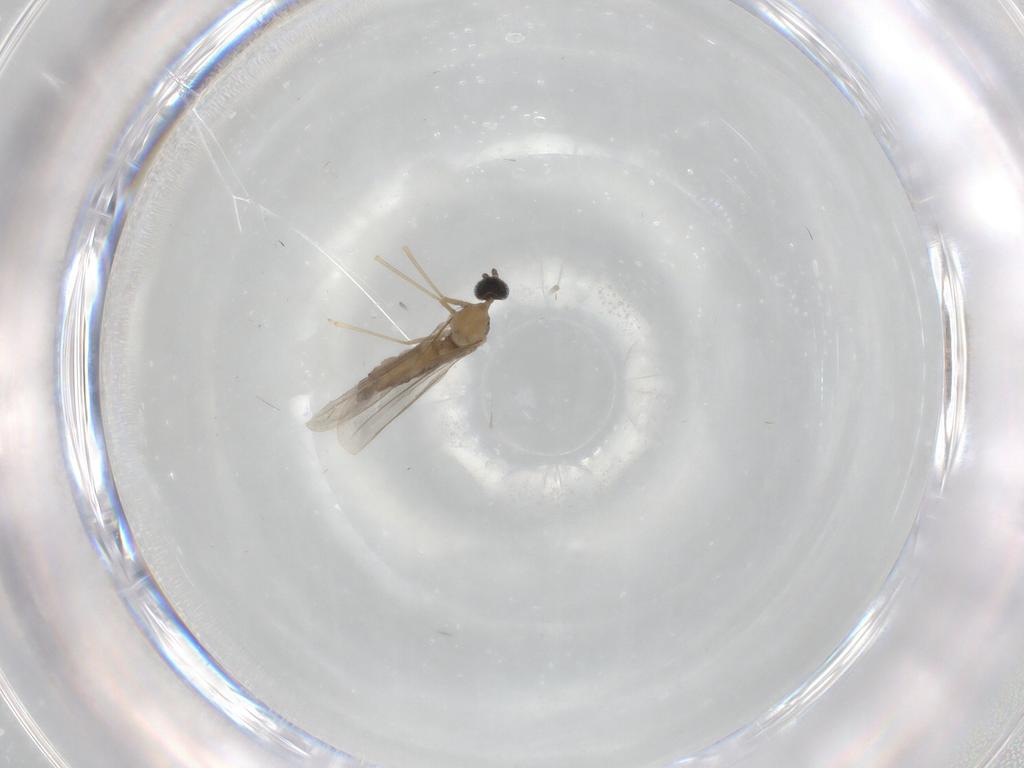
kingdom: Animalia
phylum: Arthropoda
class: Insecta
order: Diptera
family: Cecidomyiidae
